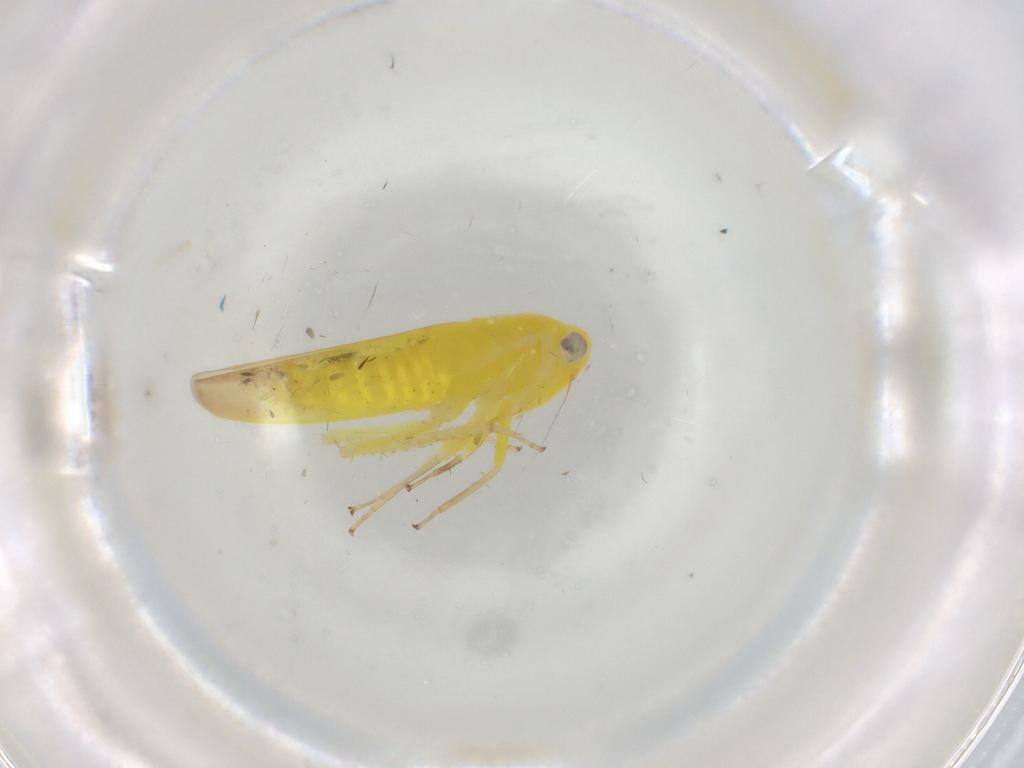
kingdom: Animalia
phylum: Arthropoda
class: Insecta
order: Hemiptera
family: Cicadellidae
